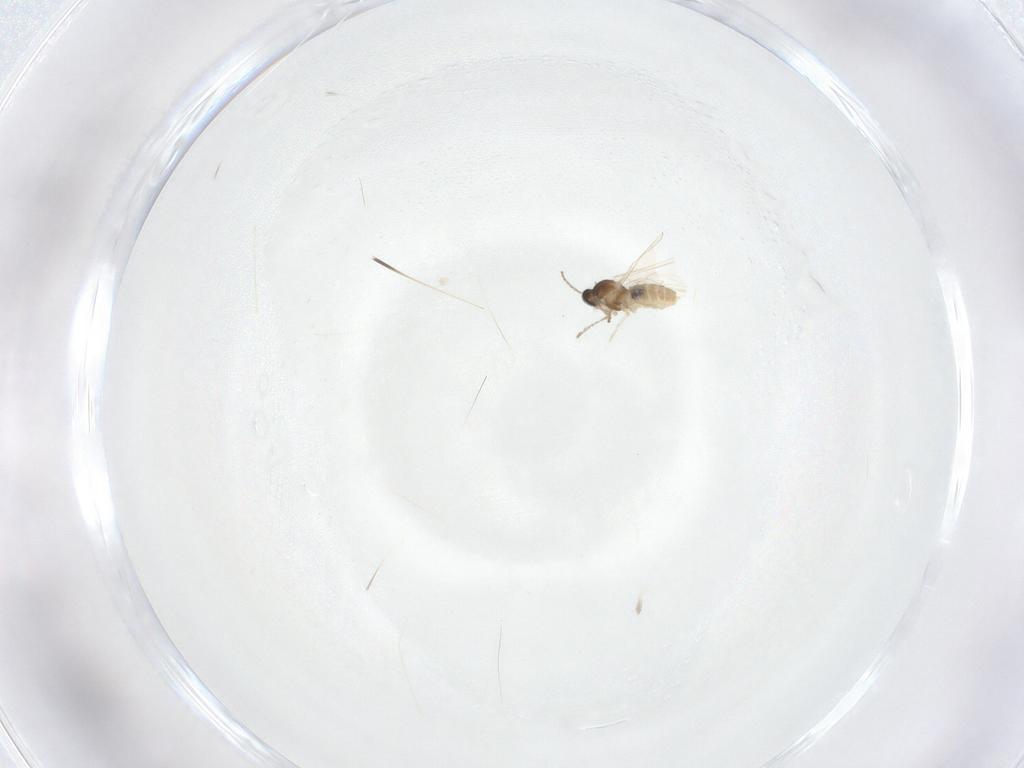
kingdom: Animalia
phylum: Arthropoda
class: Insecta
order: Diptera
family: Cecidomyiidae
